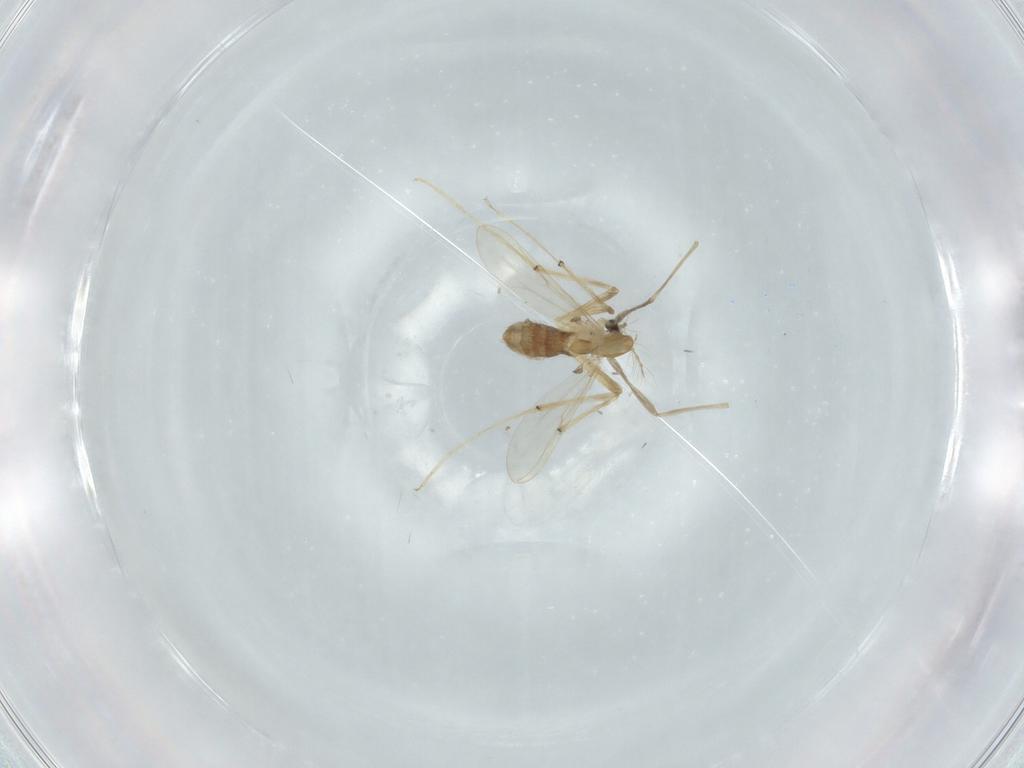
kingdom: Animalia
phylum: Arthropoda
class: Insecta
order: Diptera
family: Chironomidae
